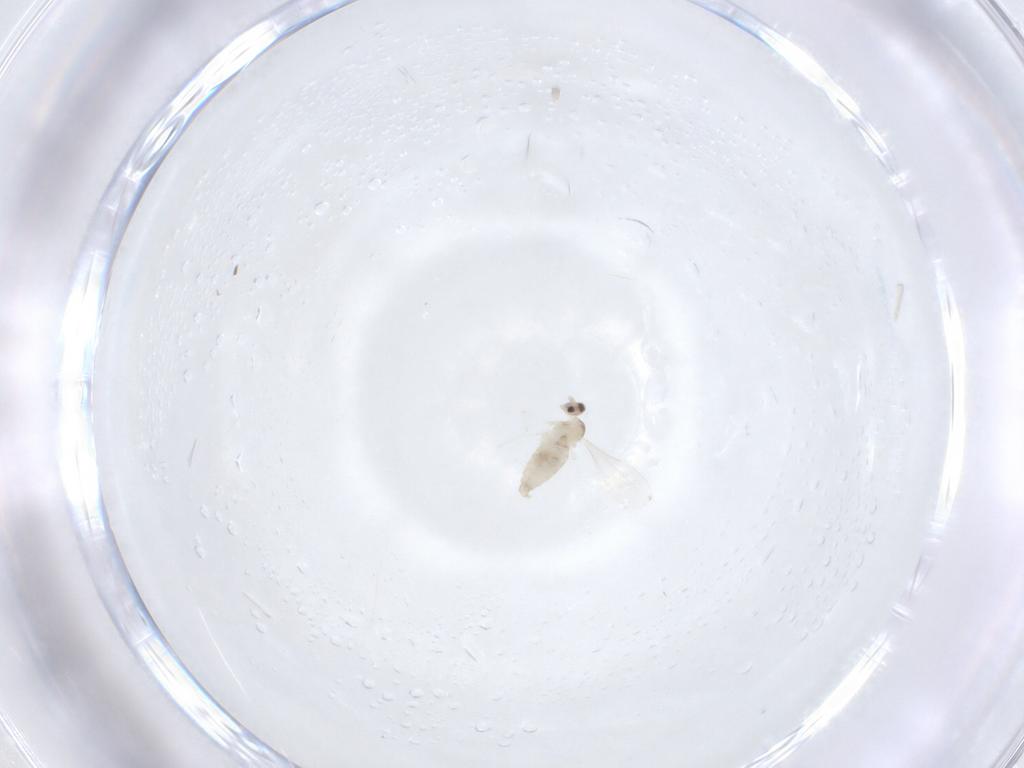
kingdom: Animalia
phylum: Arthropoda
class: Insecta
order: Diptera
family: Cecidomyiidae
